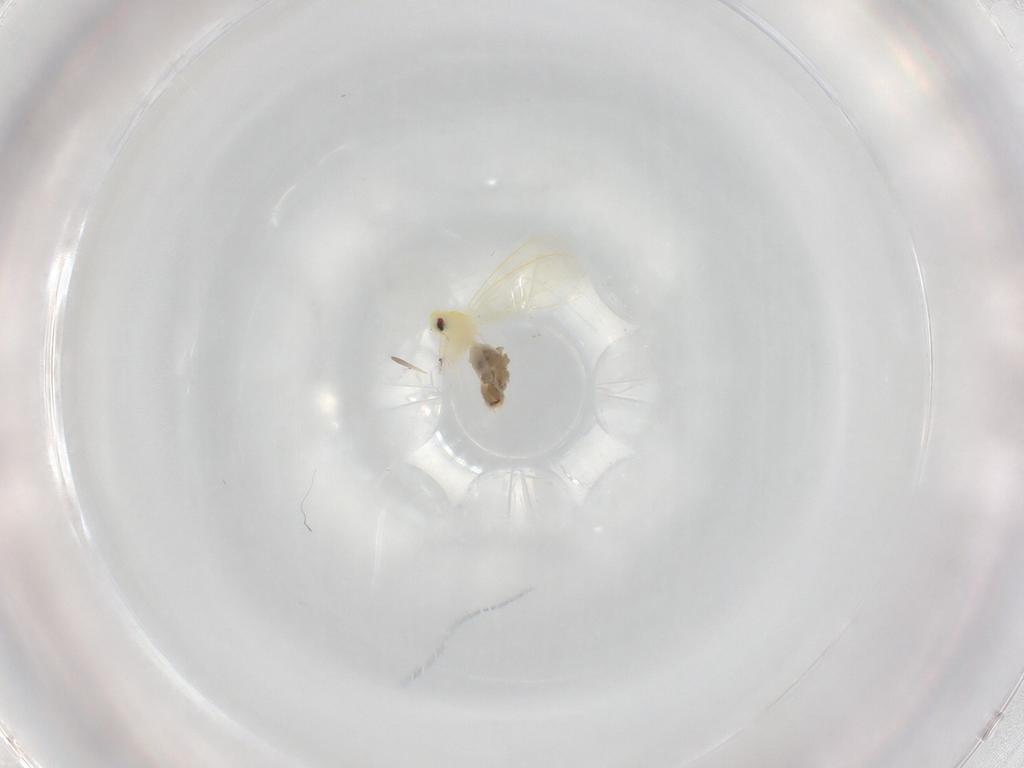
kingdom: Animalia
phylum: Arthropoda
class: Insecta
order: Hemiptera
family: Aleyrodidae
